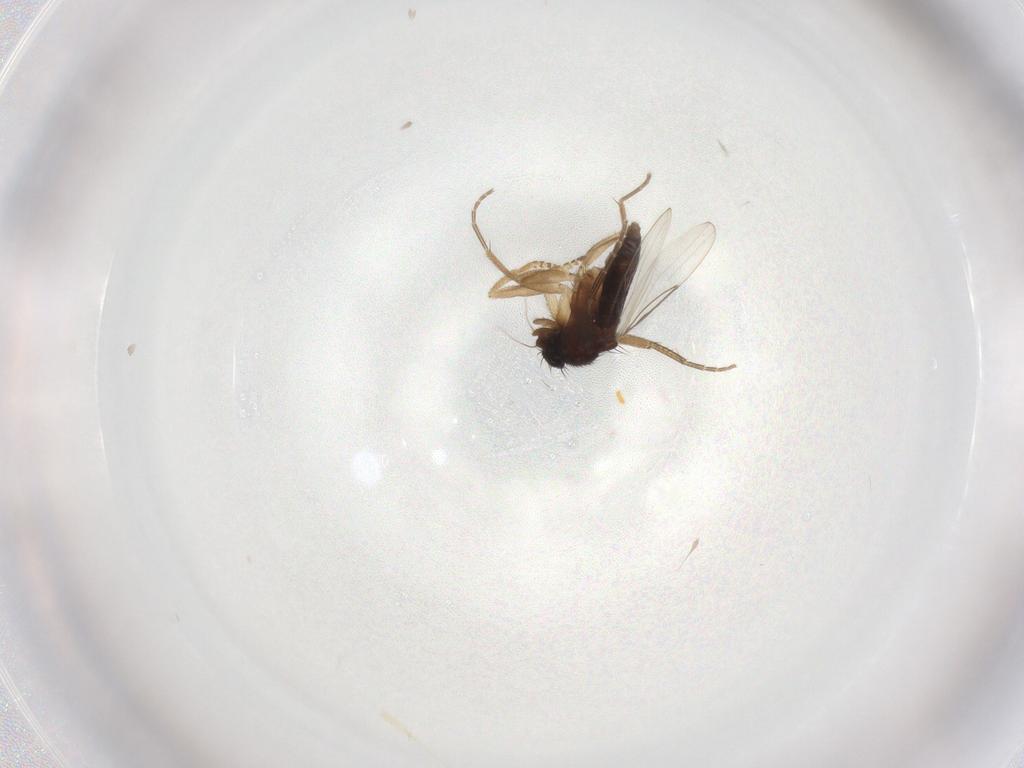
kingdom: Animalia
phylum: Arthropoda
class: Insecta
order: Diptera
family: Phoridae
